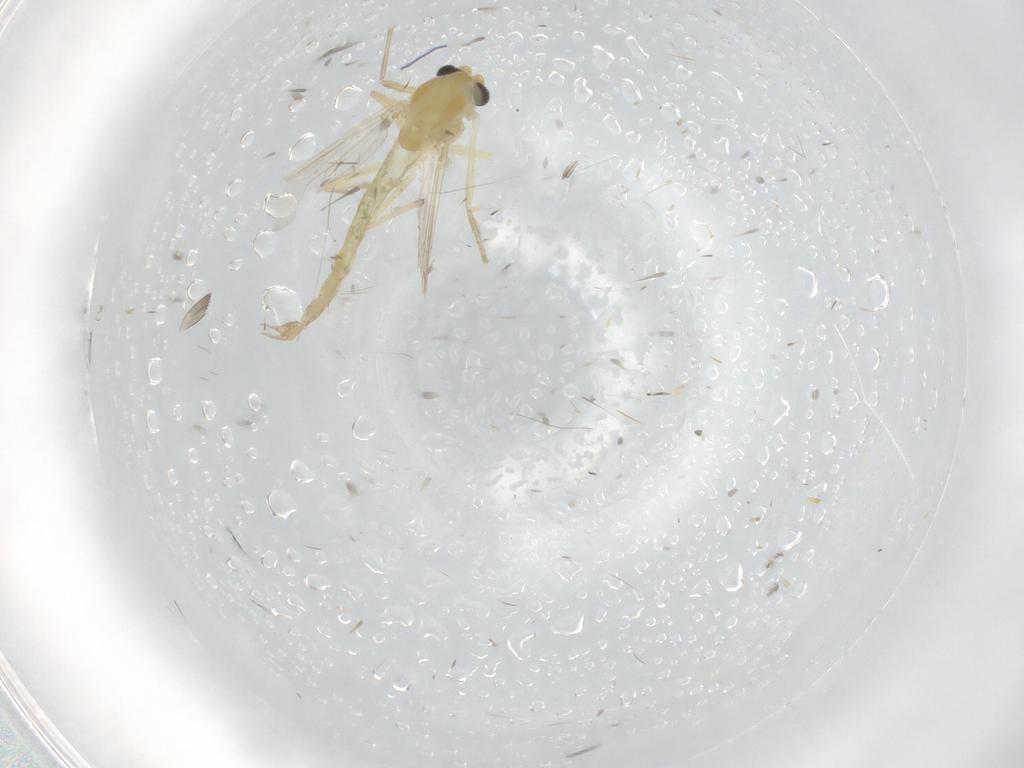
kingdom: Animalia
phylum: Arthropoda
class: Insecta
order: Diptera
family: Chironomidae
